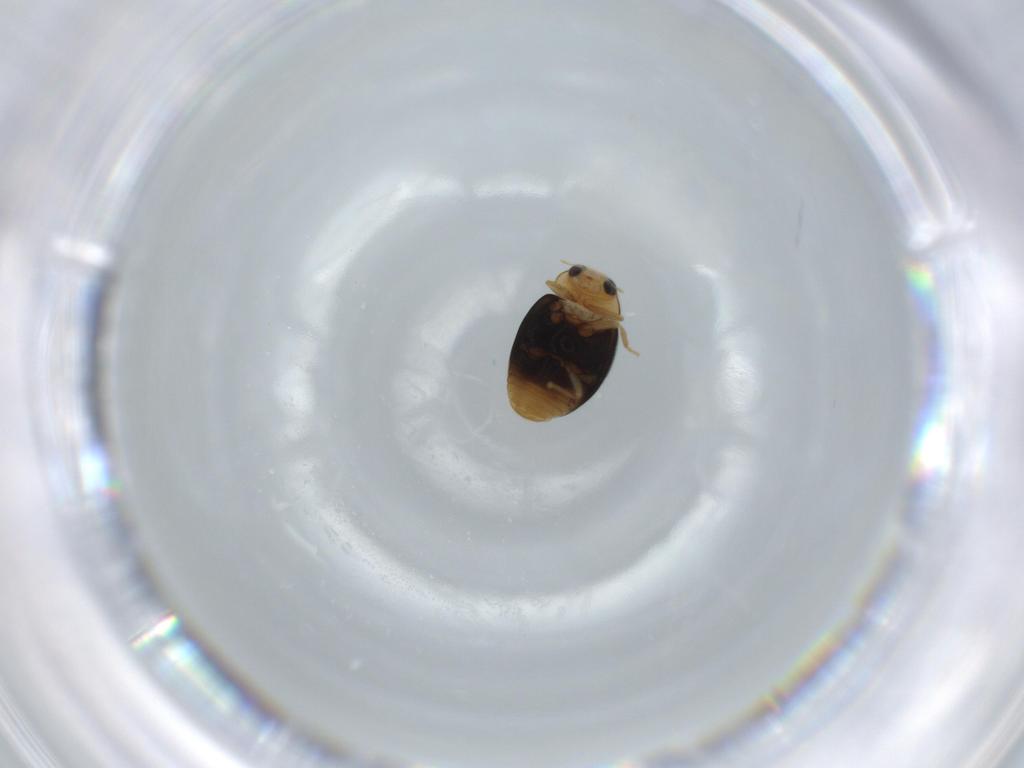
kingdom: Animalia
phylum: Arthropoda
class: Insecta
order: Coleoptera
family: Coccinellidae
